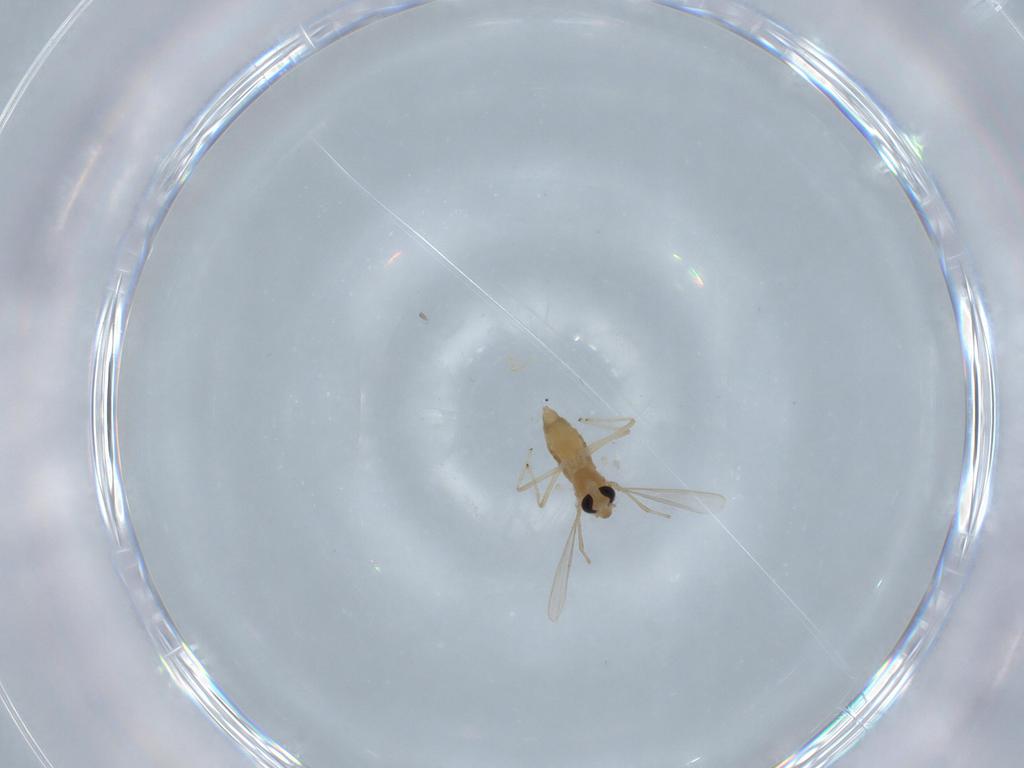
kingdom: Animalia
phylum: Arthropoda
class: Insecta
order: Diptera
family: Chironomidae
